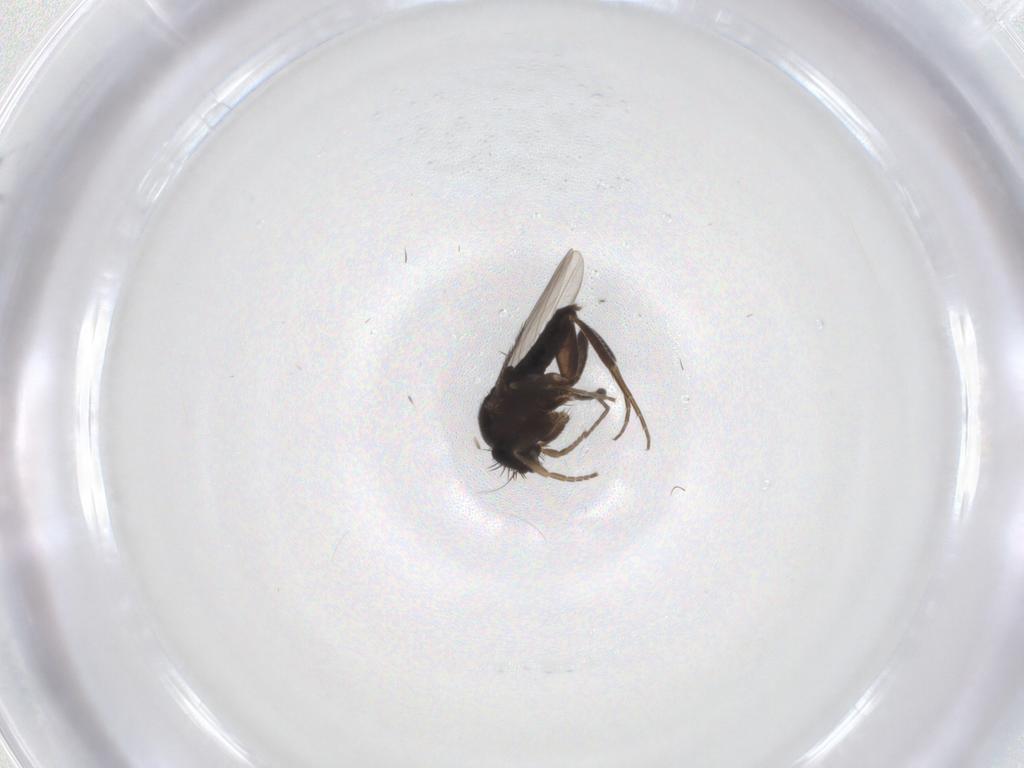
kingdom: Animalia
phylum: Arthropoda
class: Insecta
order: Diptera
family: Phoridae
